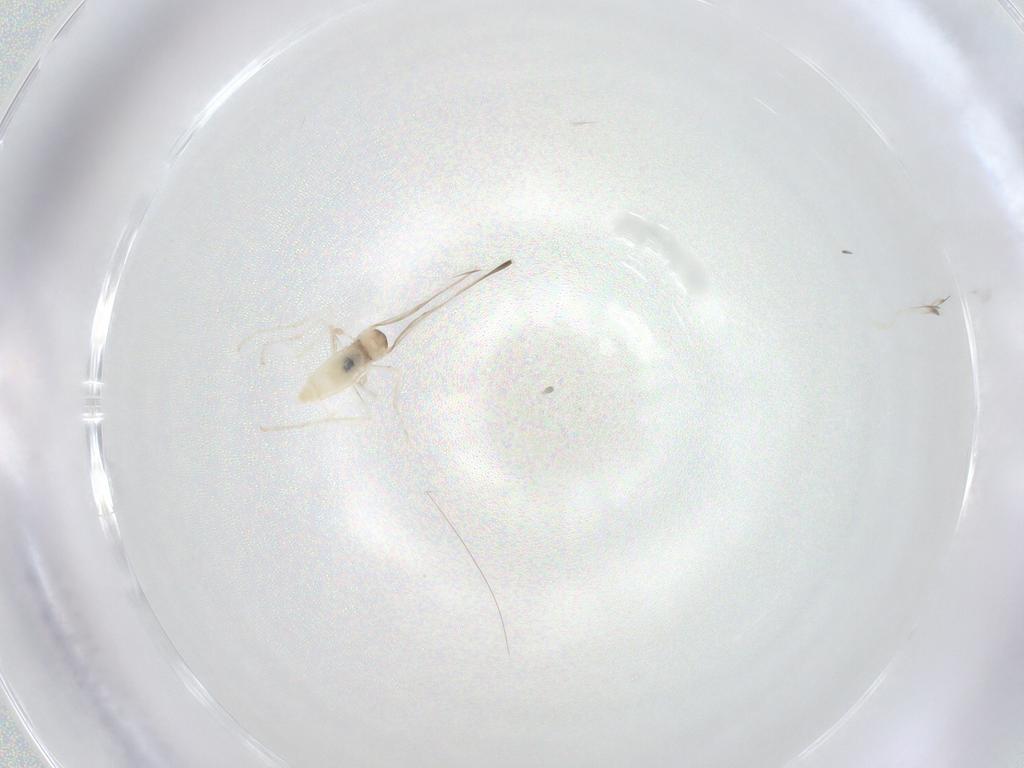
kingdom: Animalia
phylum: Arthropoda
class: Insecta
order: Diptera
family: Cecidomyiidae
